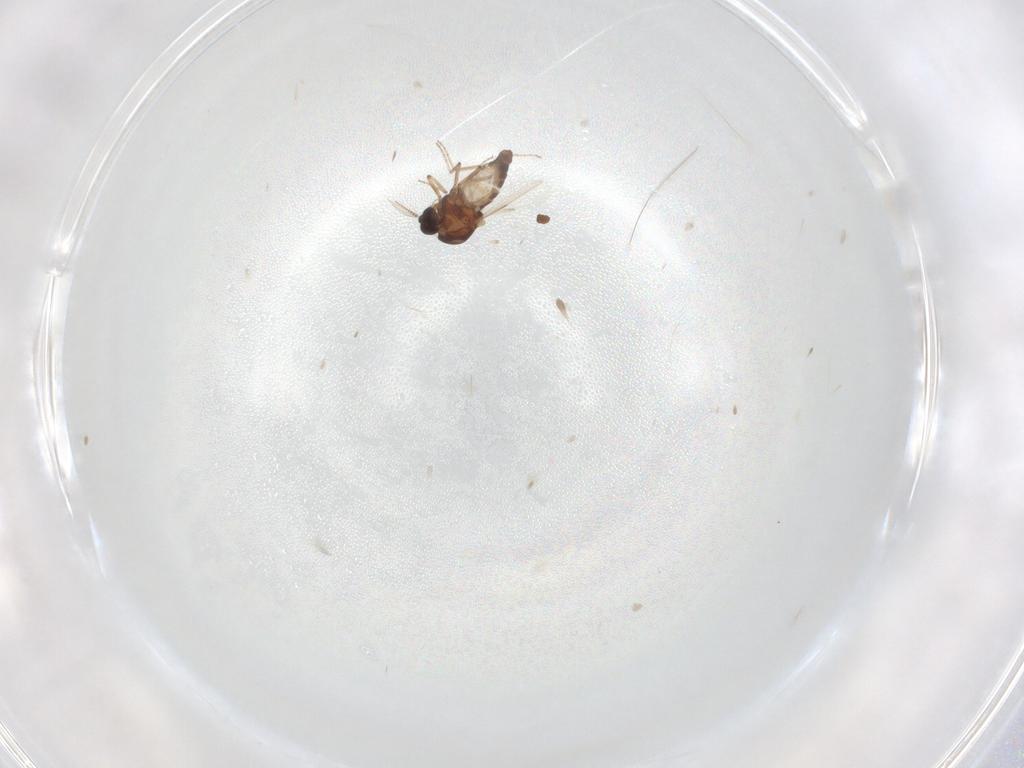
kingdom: Animalia
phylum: Arthropoda
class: Insecta
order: Diptera
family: Ceratopogonidae
